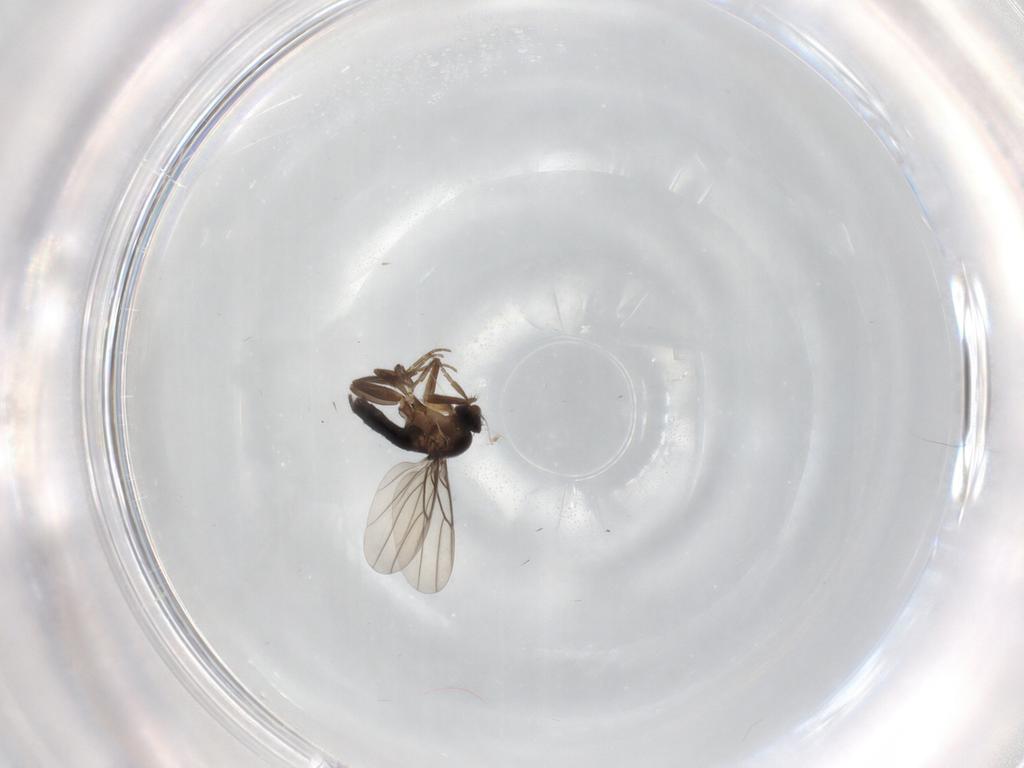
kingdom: Animalia
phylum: Arthropoda
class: Insecta
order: Diptera
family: Phoridae
